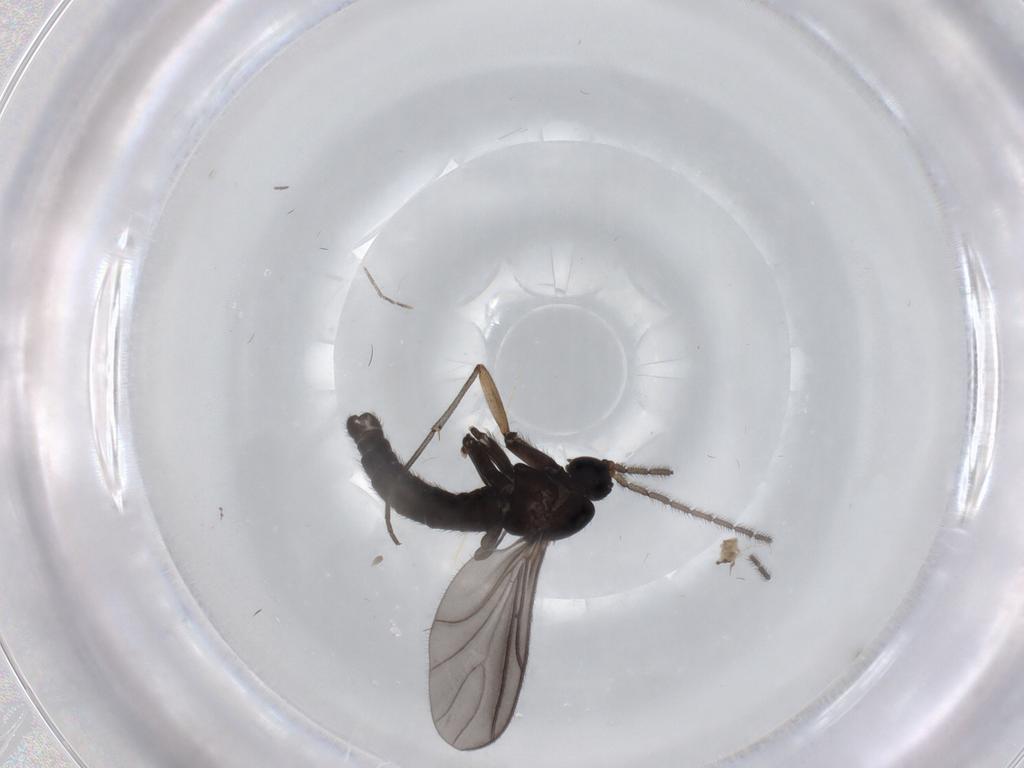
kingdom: Animalia
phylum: Arthropoda
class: Insecta
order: Diptera
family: Cecidomyiidae
